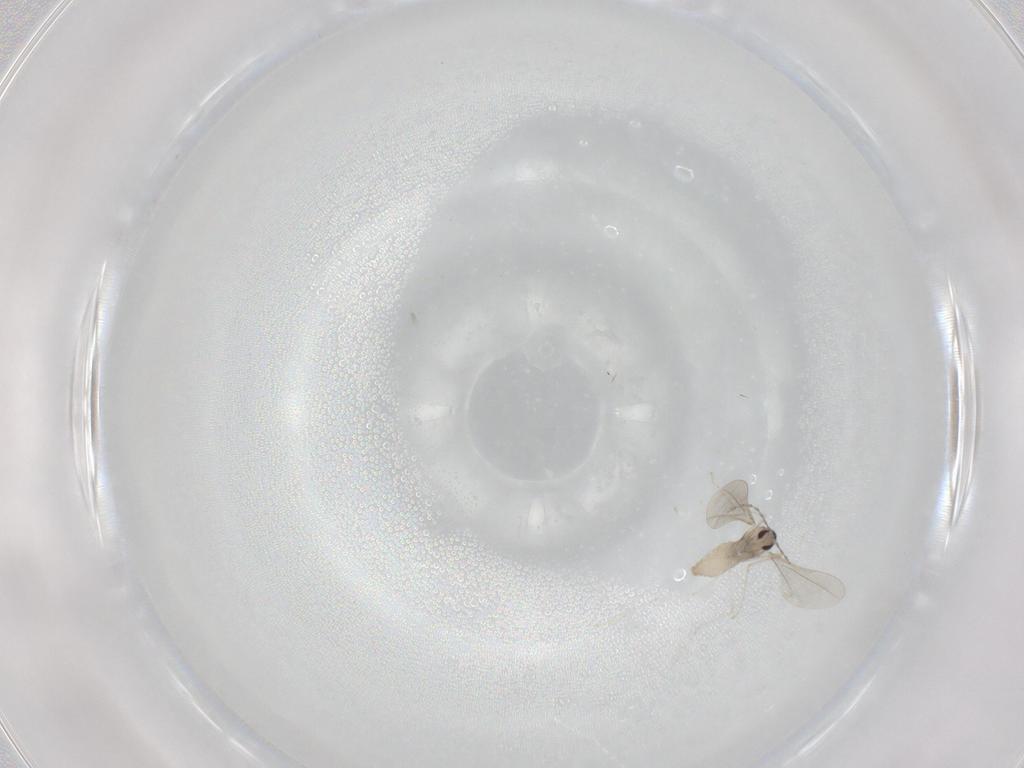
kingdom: Animalia
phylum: Arthropoda
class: Insecta
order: Diptera
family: Phoridae
